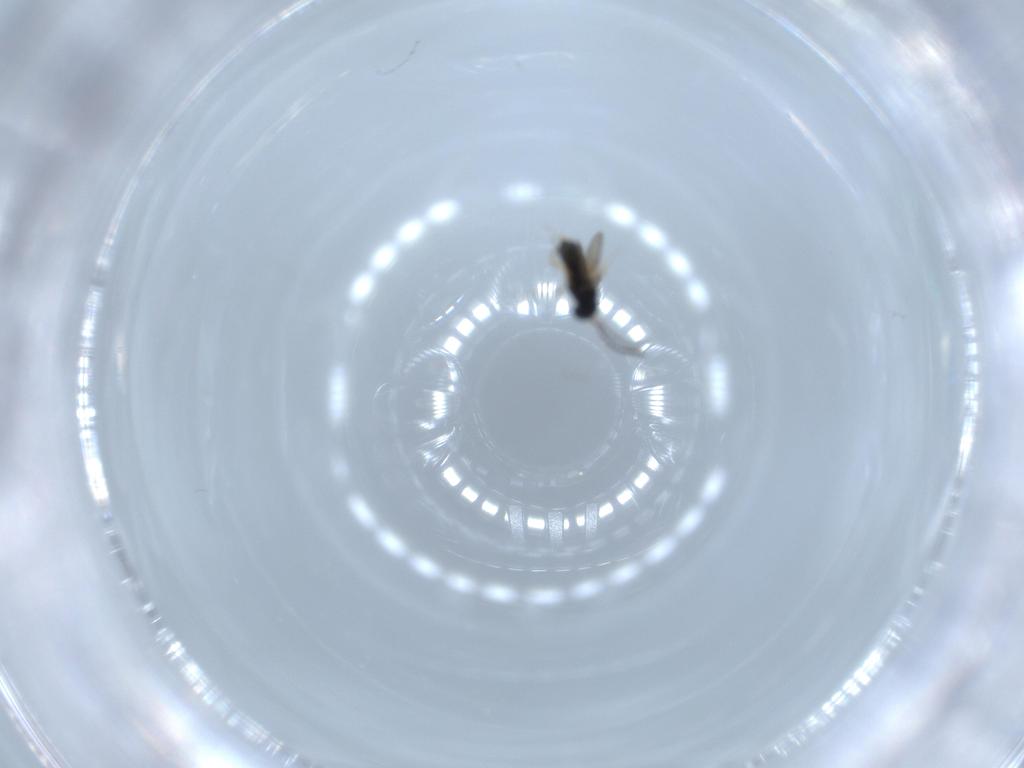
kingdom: Animalia
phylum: Arthropoda
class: Insecta
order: Hymenoptera
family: Scelionidae
